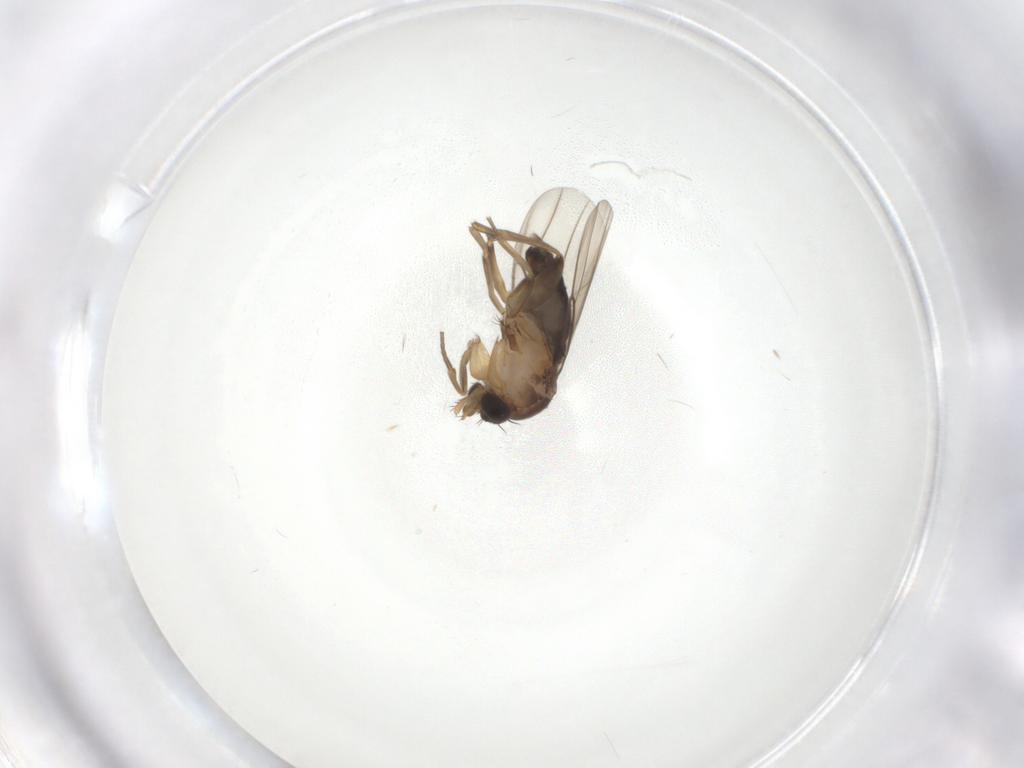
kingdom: Animalia
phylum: Arthropoda
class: Insecta
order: Diptera
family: Phoridae
